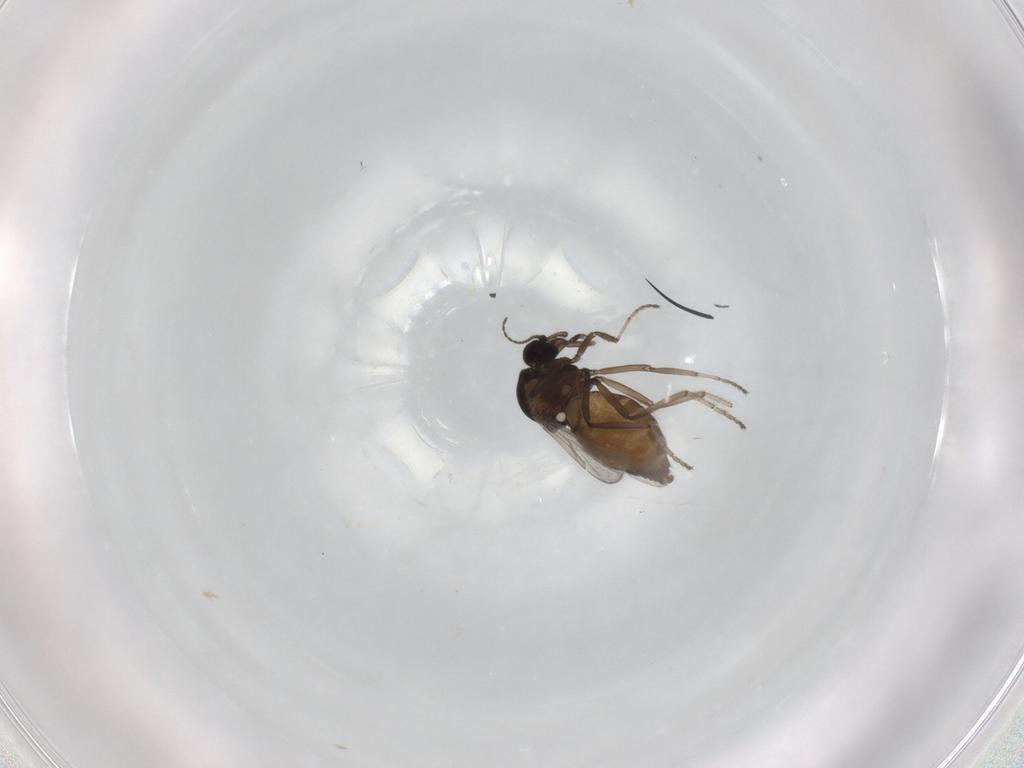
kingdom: Animalia
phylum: Arthropoda
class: Insecta
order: Diptera
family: Ceratopogonidae
